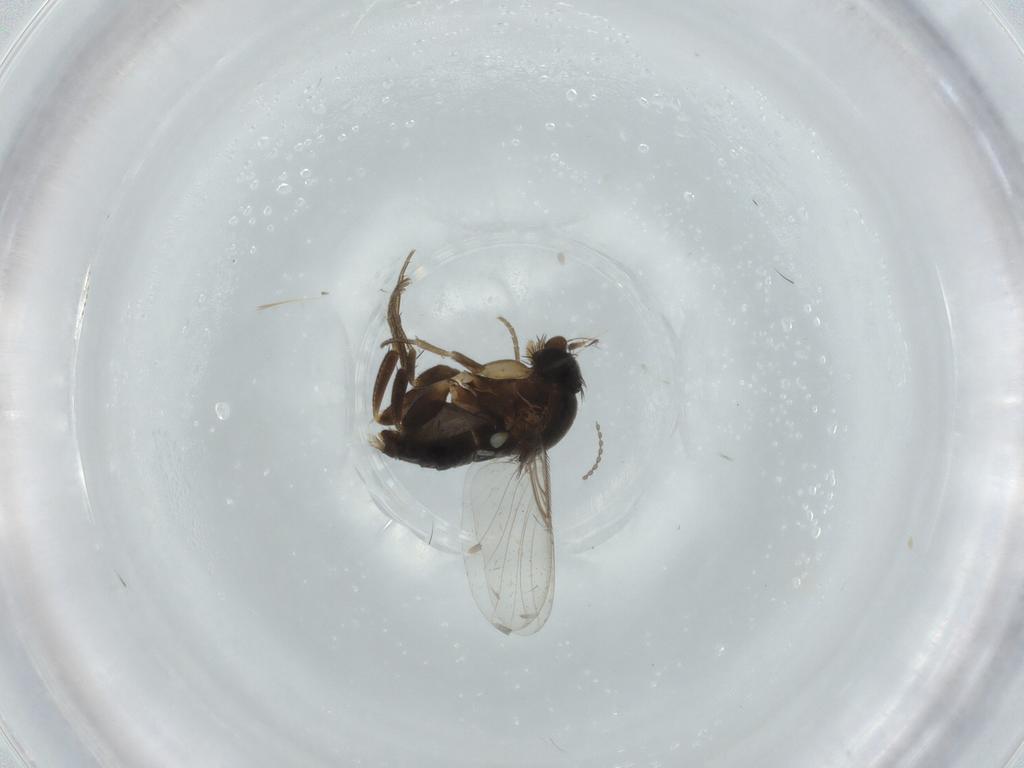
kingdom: Animalia
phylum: Arthropoda
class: Insecta
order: Diptera
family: Phoridae
